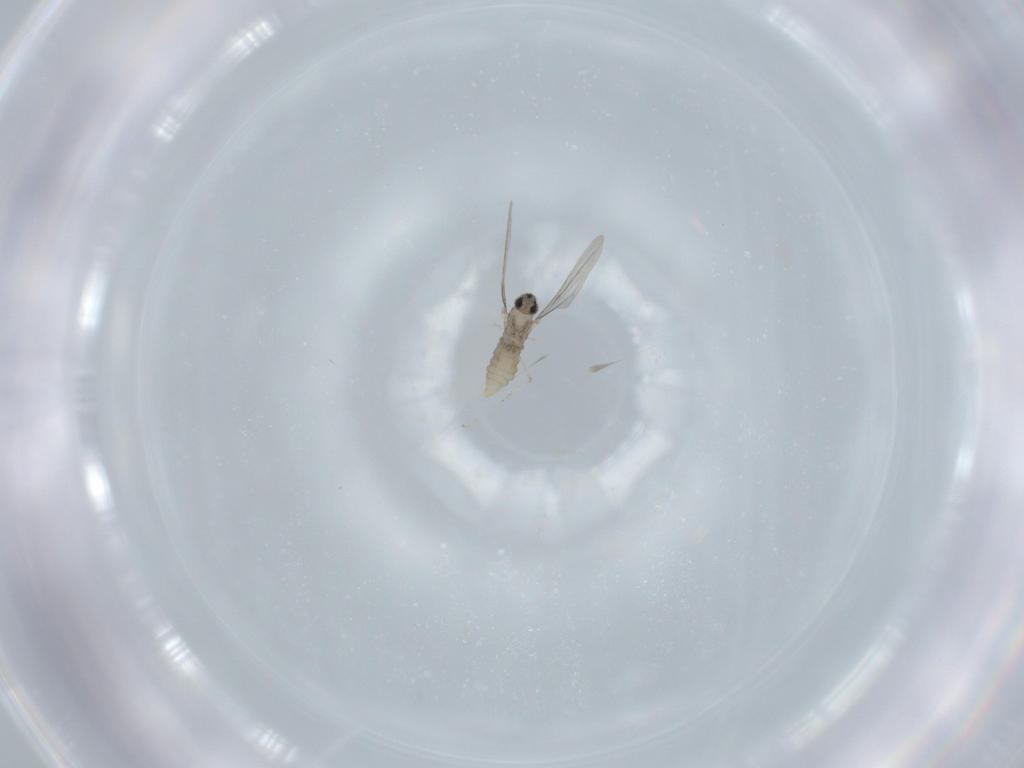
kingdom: Animalia
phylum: Arthropoda
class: Insecta
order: Diptera
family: Cecidomyiidae
